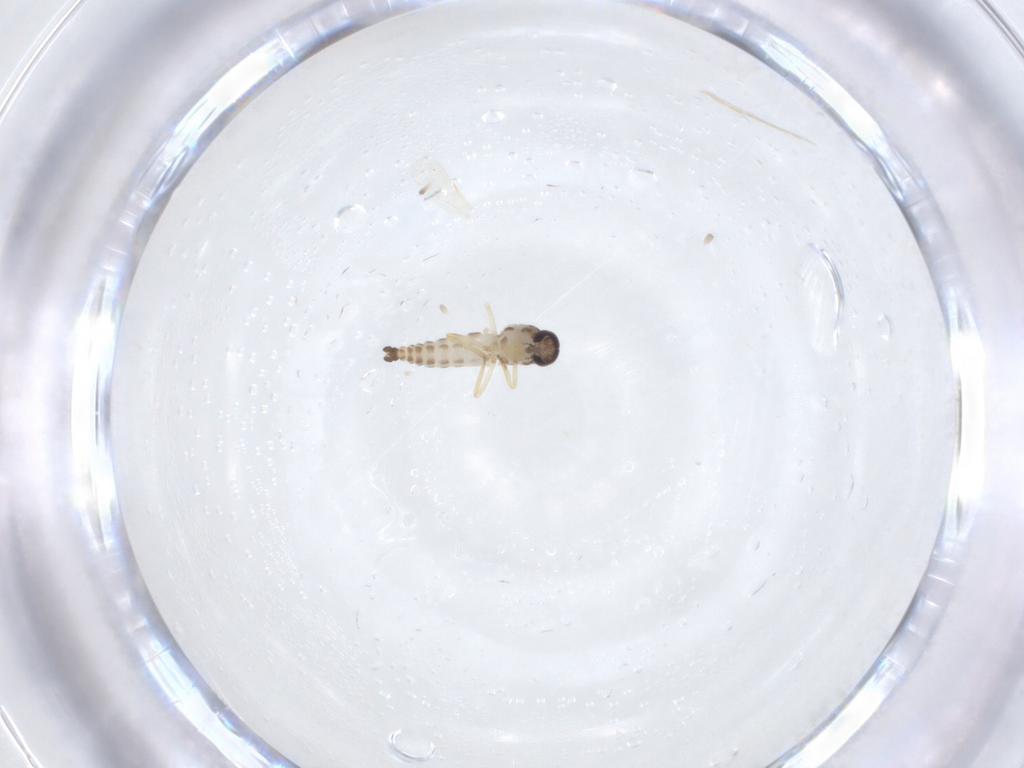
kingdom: Animalia
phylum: Arthropoda
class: Insecta
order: Diptera
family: Ceratopogonidae
